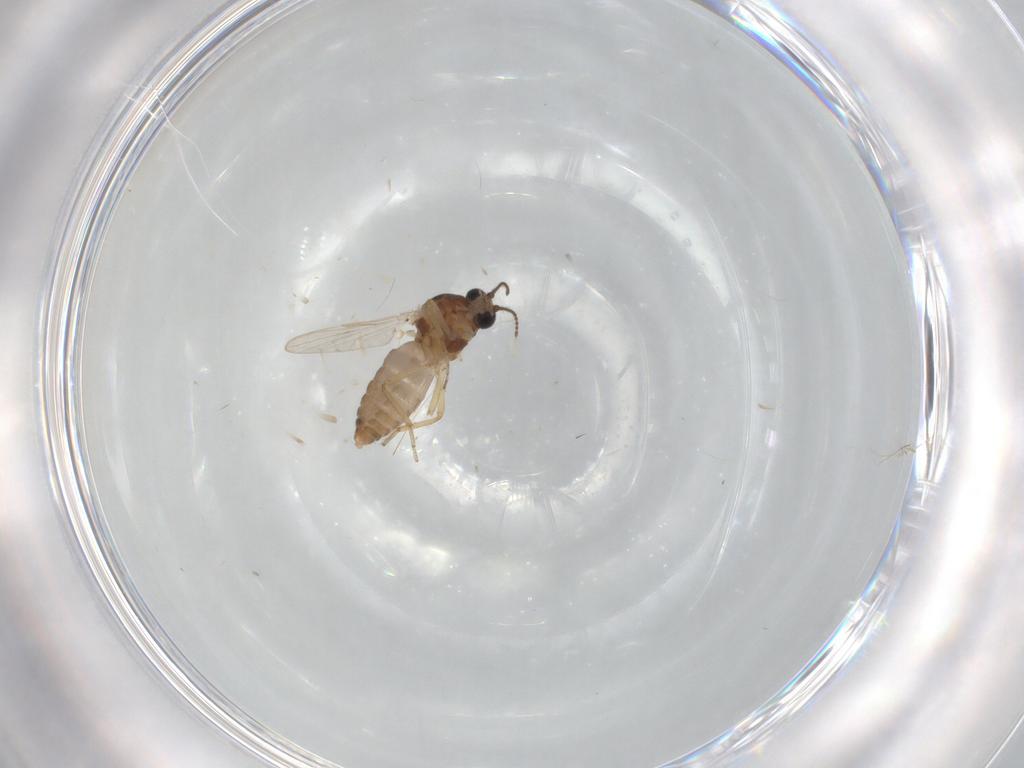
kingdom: Animalia
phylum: Arthropoda
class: Insecta
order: Diptera
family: Ceratopogonidae
